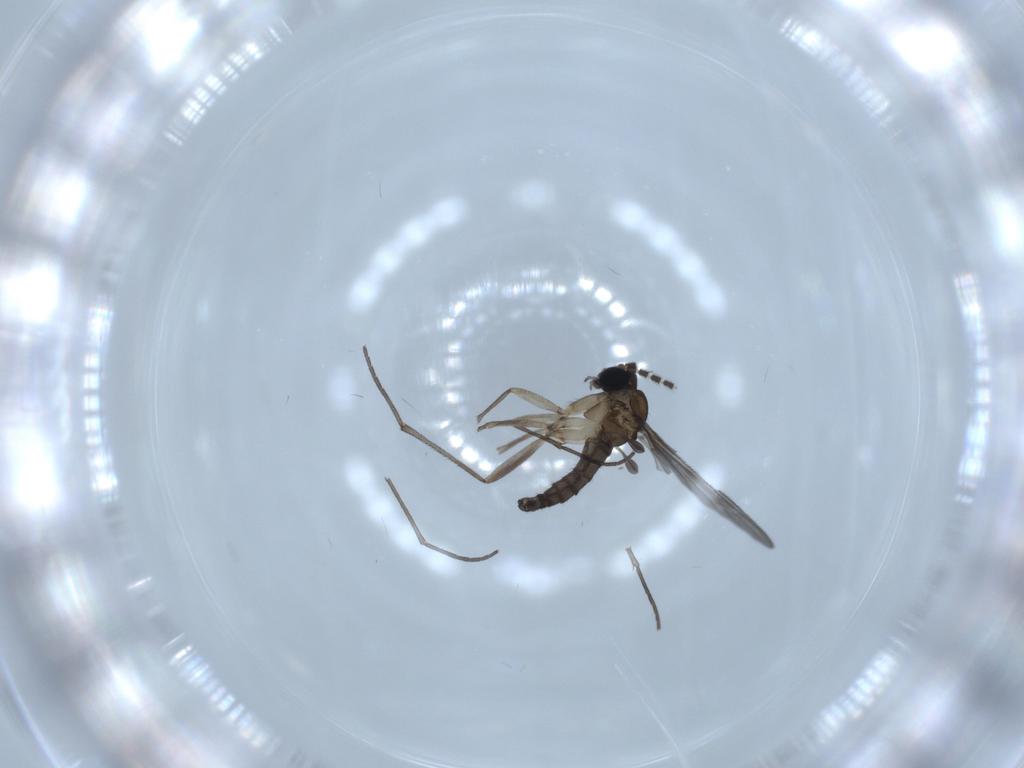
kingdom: Animalia
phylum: Arthropoda
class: Insecta
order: Diptera
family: Sciaridae
